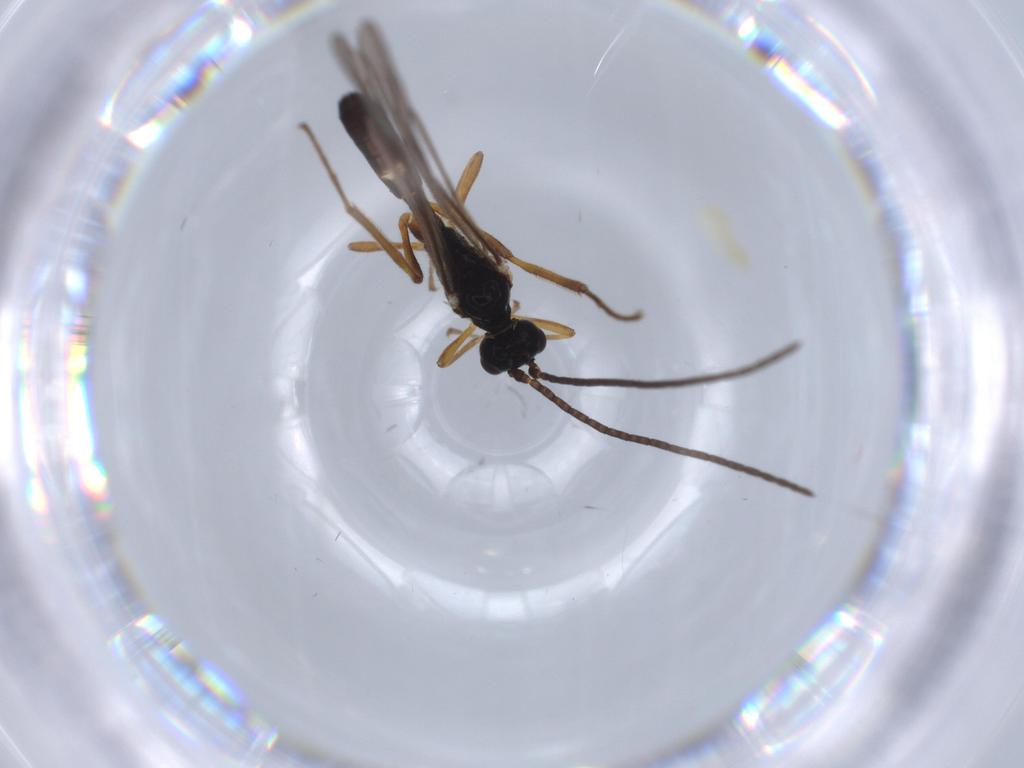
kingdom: Animalia
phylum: Arthropoda
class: Insecta
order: Hymenoptera
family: Ichneumonidae
